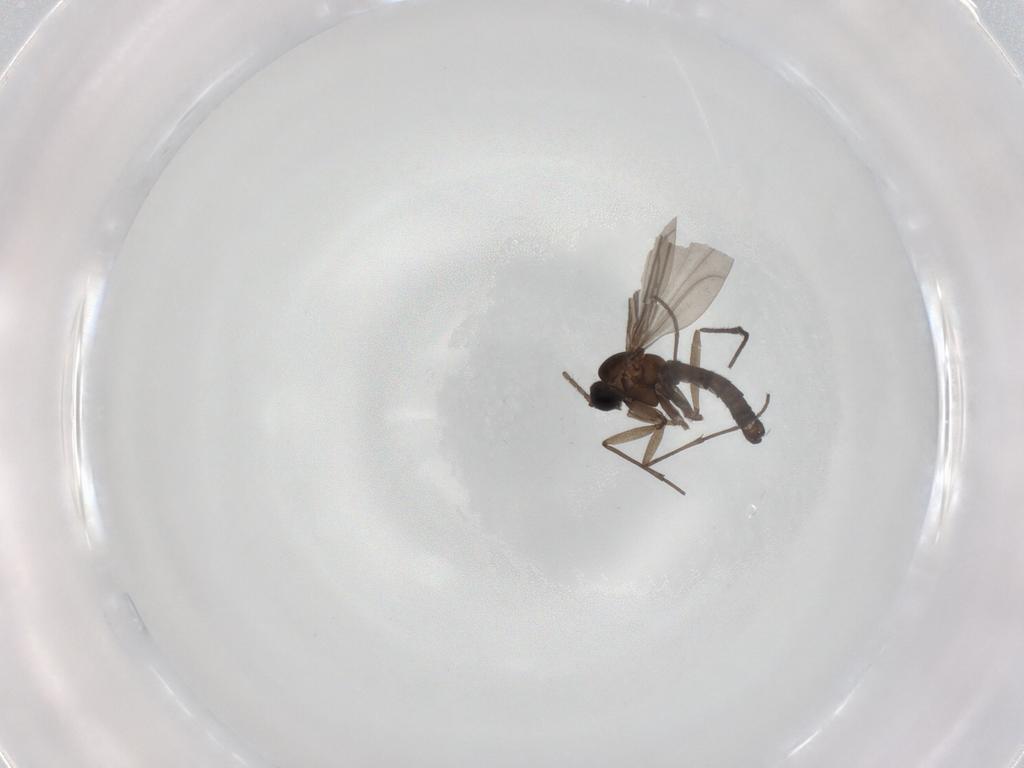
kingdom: Animalia
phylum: Arthropoda
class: Insecta
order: Diptera
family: Sciaridae
